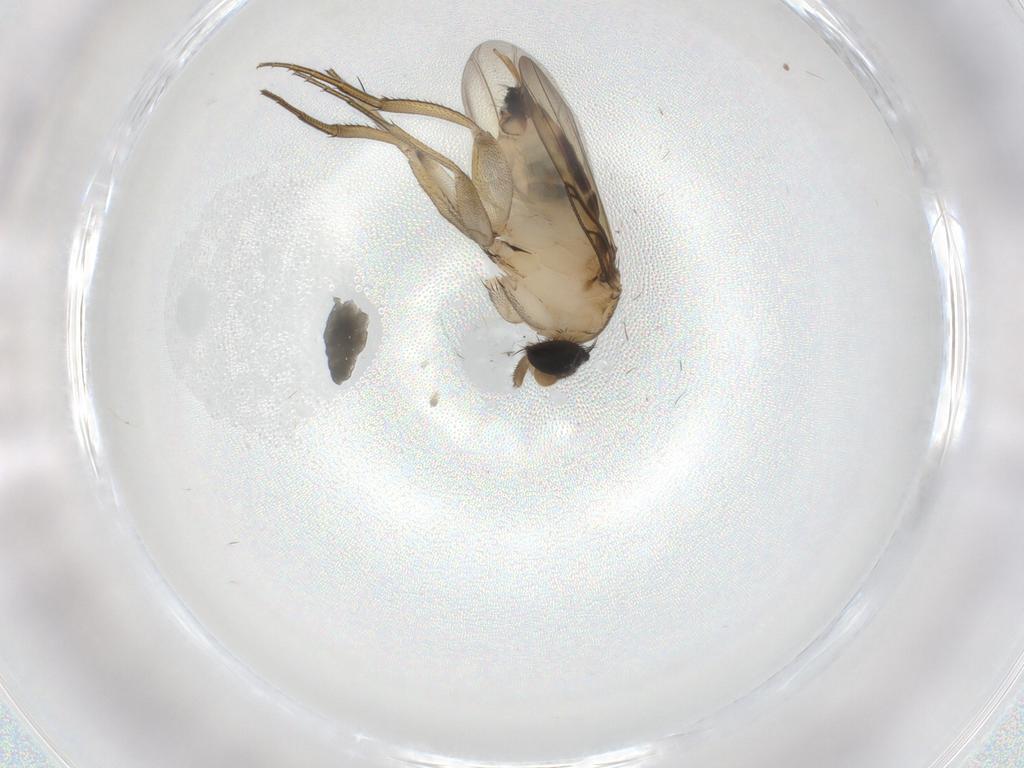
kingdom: Animalia
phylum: Arthropoda
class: Insecta
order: Diptera
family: Phoridae
